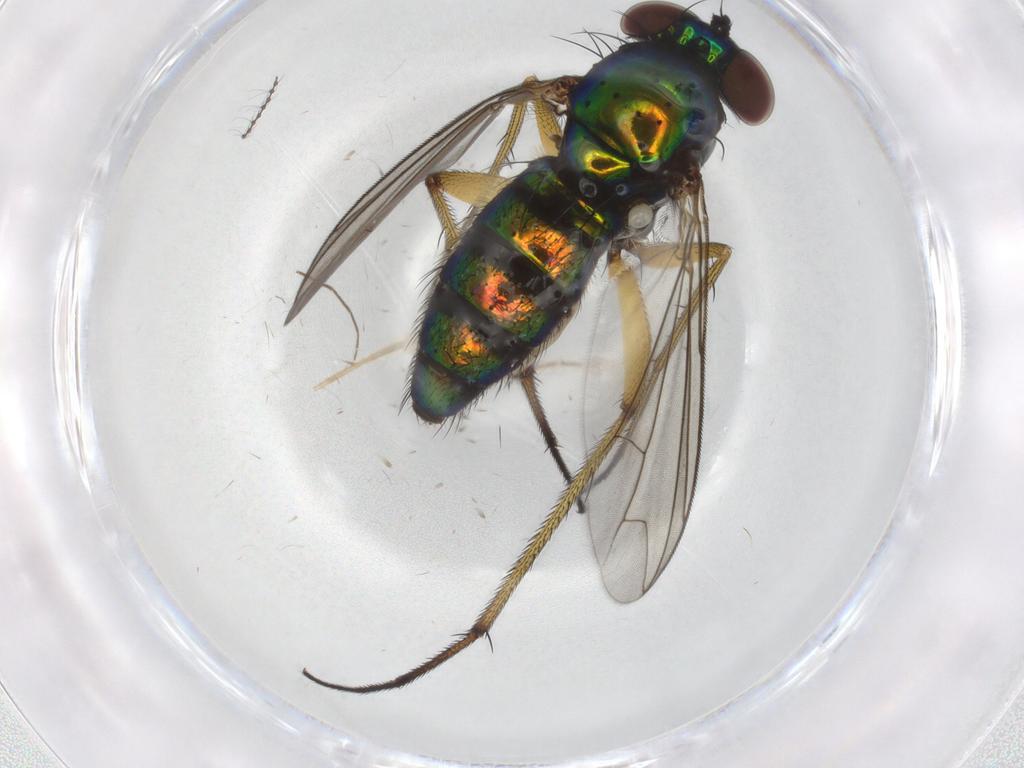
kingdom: Animalia
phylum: Arthropoda
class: Insecta
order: Diptera
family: Dolichopodidae
